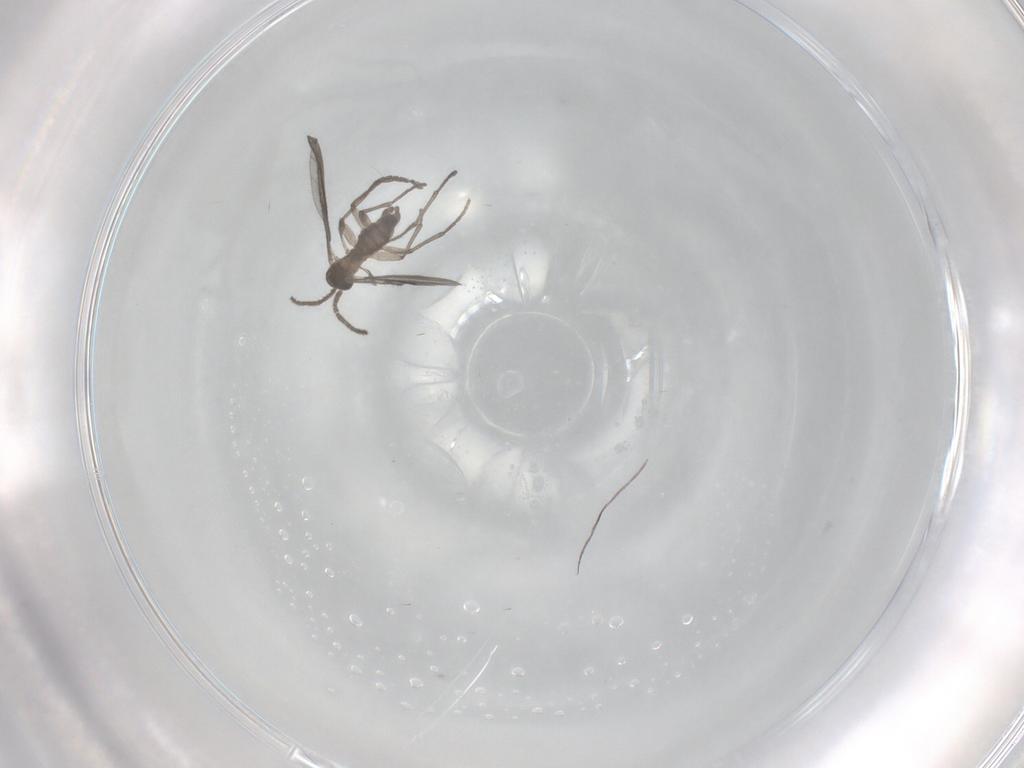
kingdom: Animalia
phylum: Arthropoda
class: Insecta
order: Diptera
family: Sciaridae
